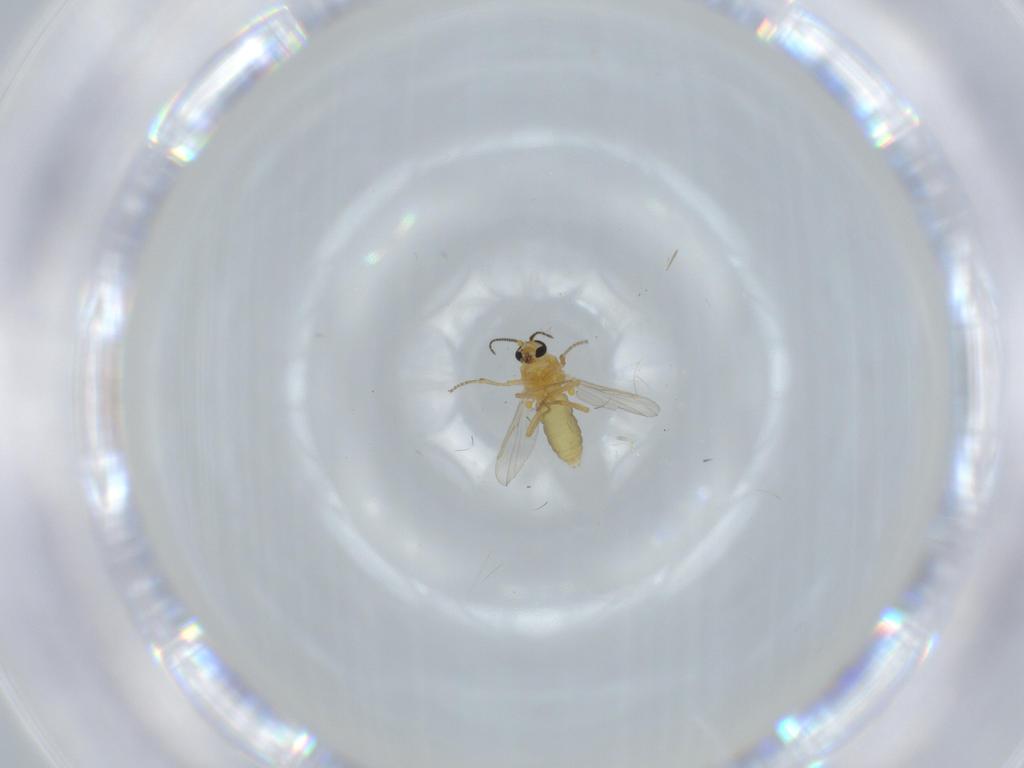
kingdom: Animalia
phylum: Arthropoda
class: Insecta
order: Diptera
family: Ceratopogonidae
